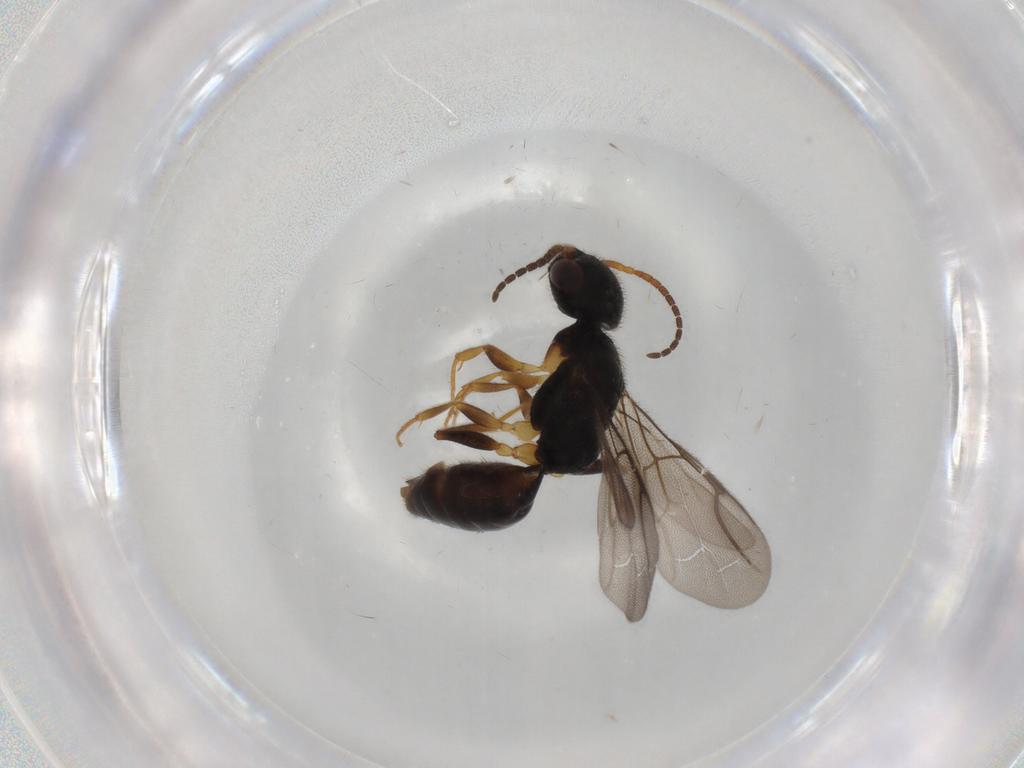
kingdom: Animalia
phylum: Arthropoda
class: Insecta
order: Hymenoptera
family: Bethylidae
